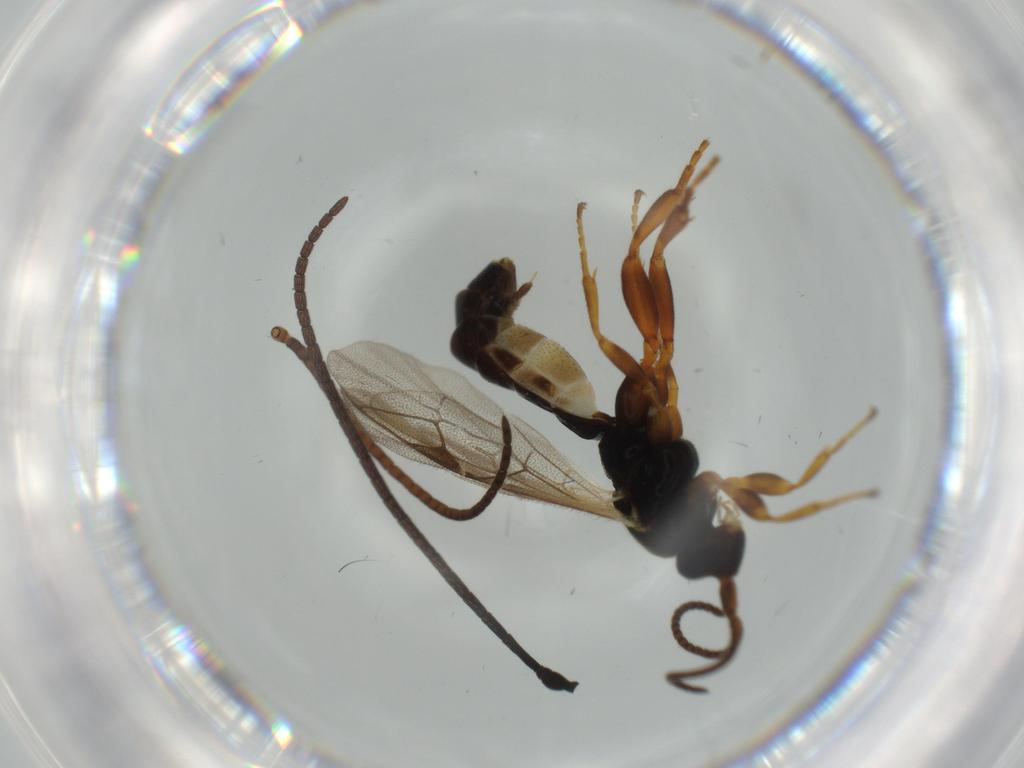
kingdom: Animalia
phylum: Arthropoda
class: Insecta
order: Hymenoptera
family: Ichneumonidae
